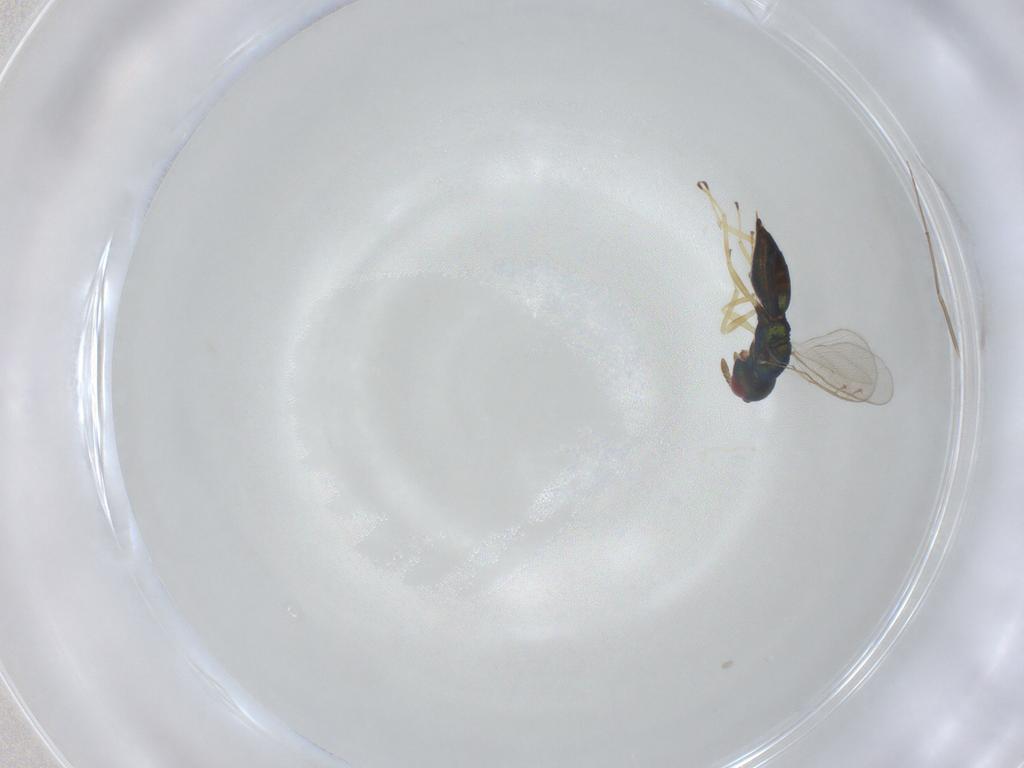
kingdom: Animalia
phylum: Arthropoda
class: Insecta
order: Hymenoptera
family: Pteromalidae
